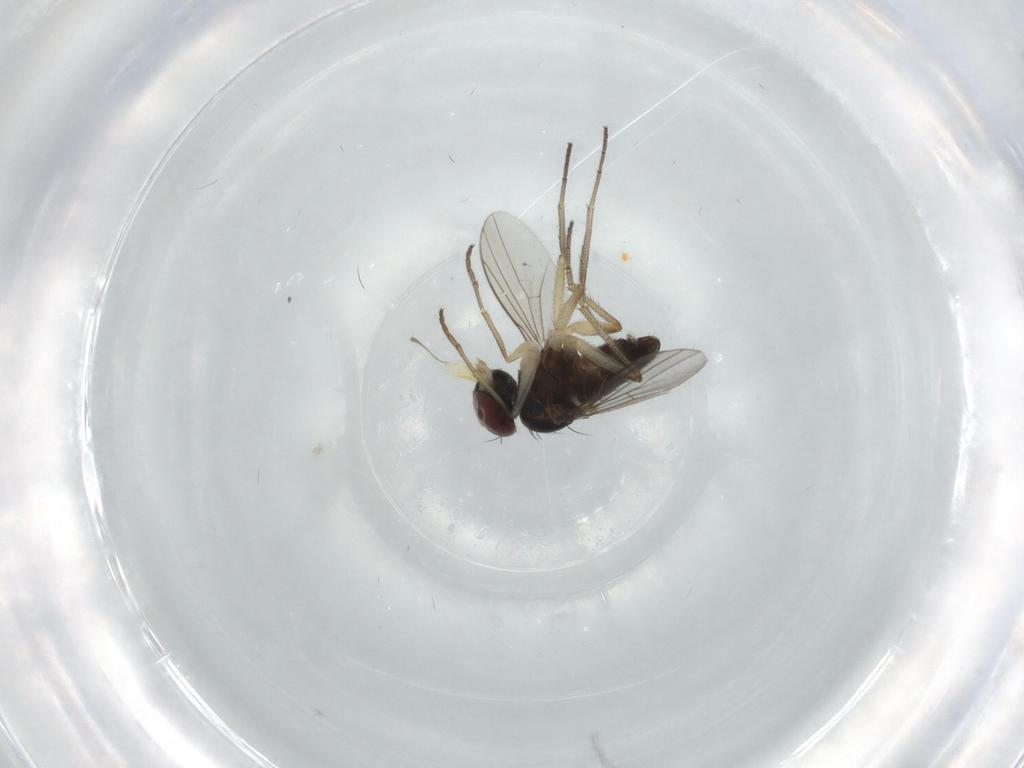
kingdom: Animalia
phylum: Arthropoda
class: Insecta
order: Diptera
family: Dolichopodidae
